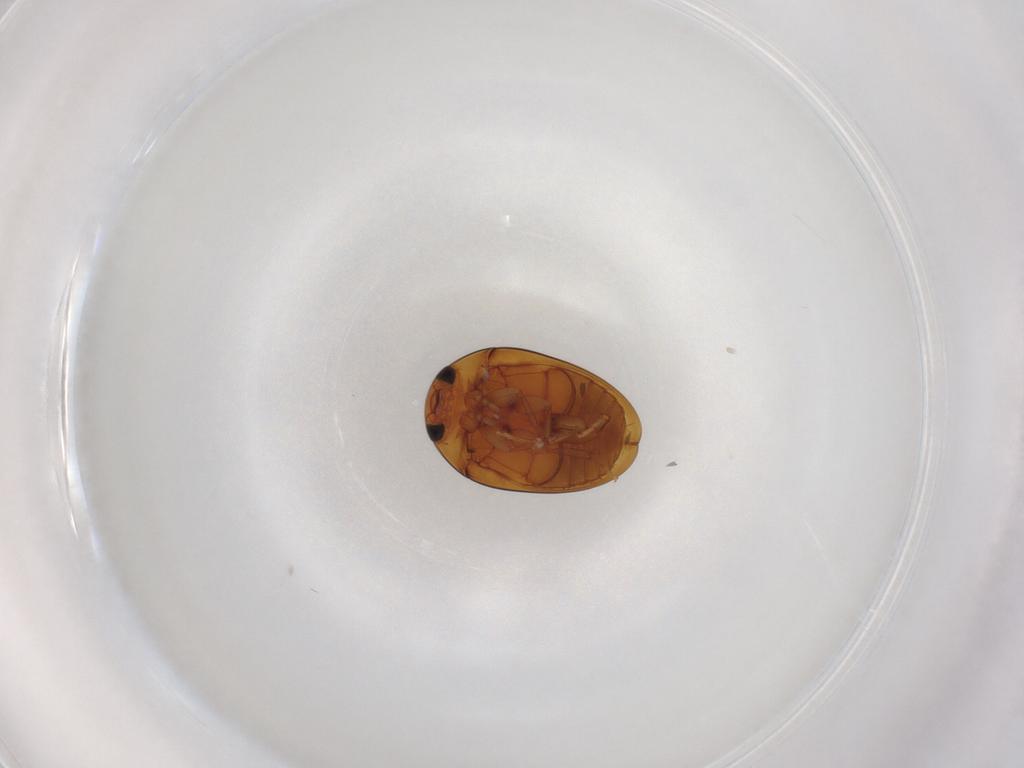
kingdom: Animalia
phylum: Arthropoda
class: Insecta
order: Coleoptera
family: Phalacridae
